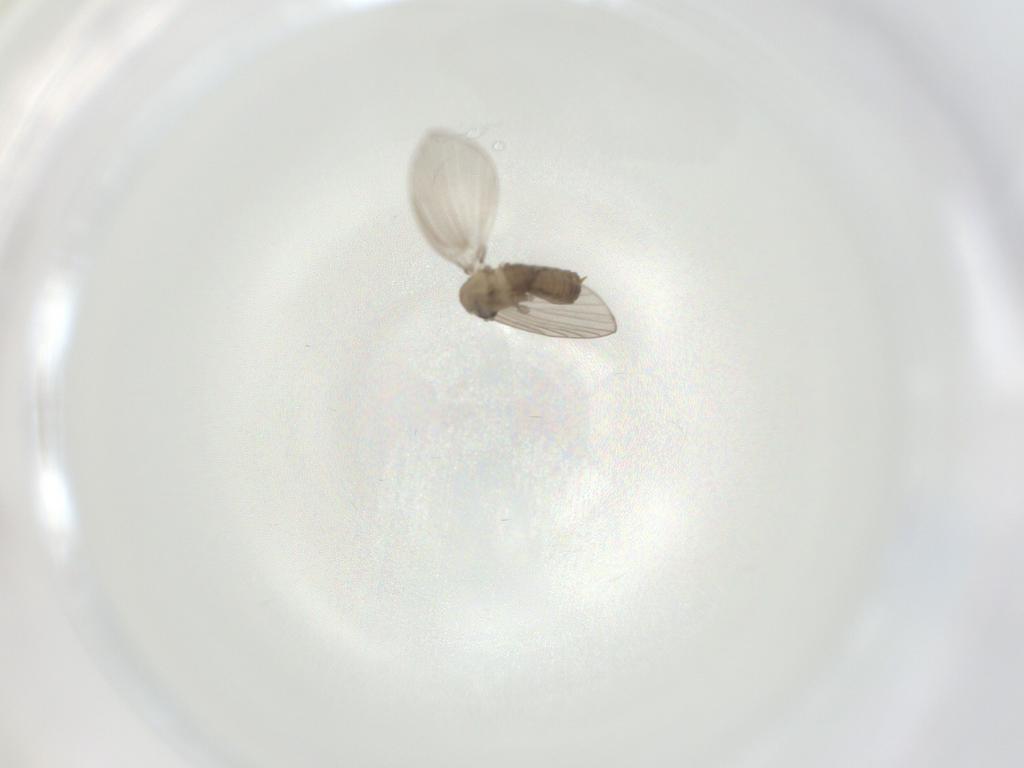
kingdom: Animalia
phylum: Arthropoda
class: Insecta
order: Diptera
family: Psychodidae
